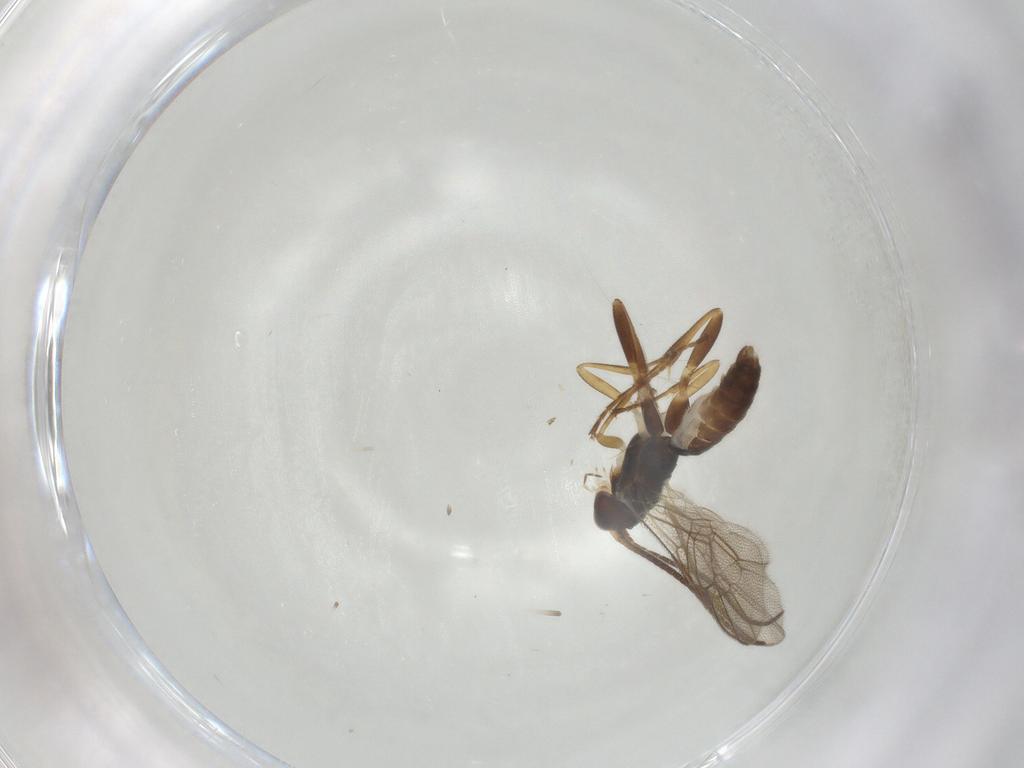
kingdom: Animalia
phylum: Arthropoda
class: Insecta
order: Hymenoptera
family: Ichneumonidae
